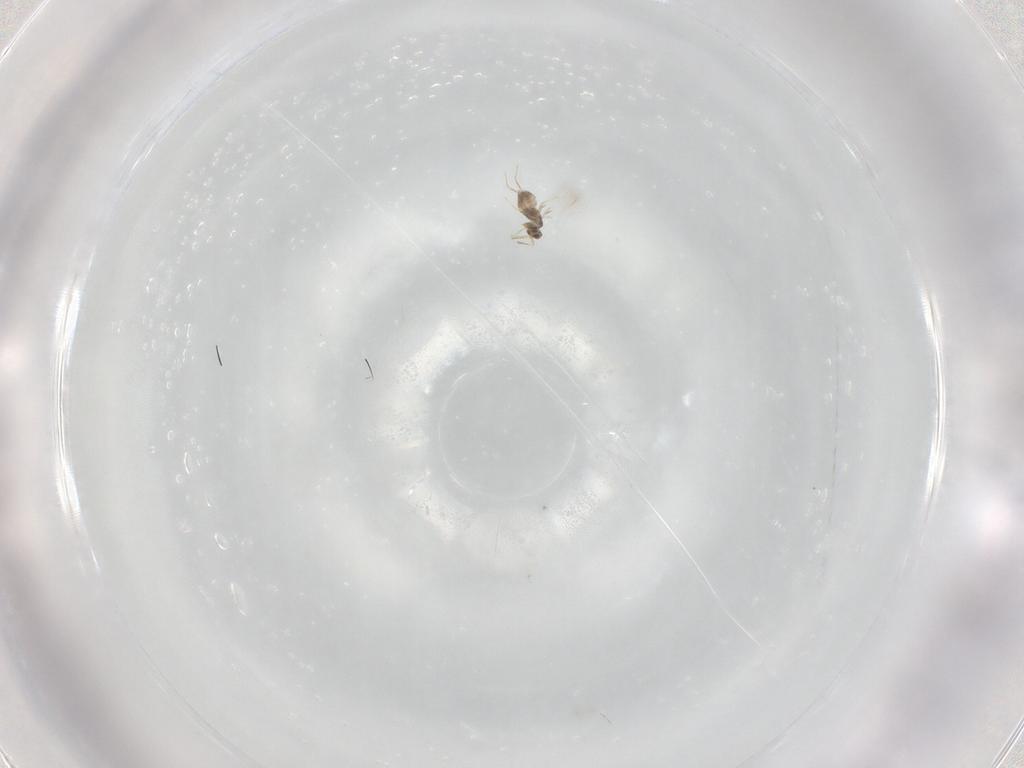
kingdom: Animalia
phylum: Arthropoda
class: Insecta
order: Hymenoptera
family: Mymaridae
